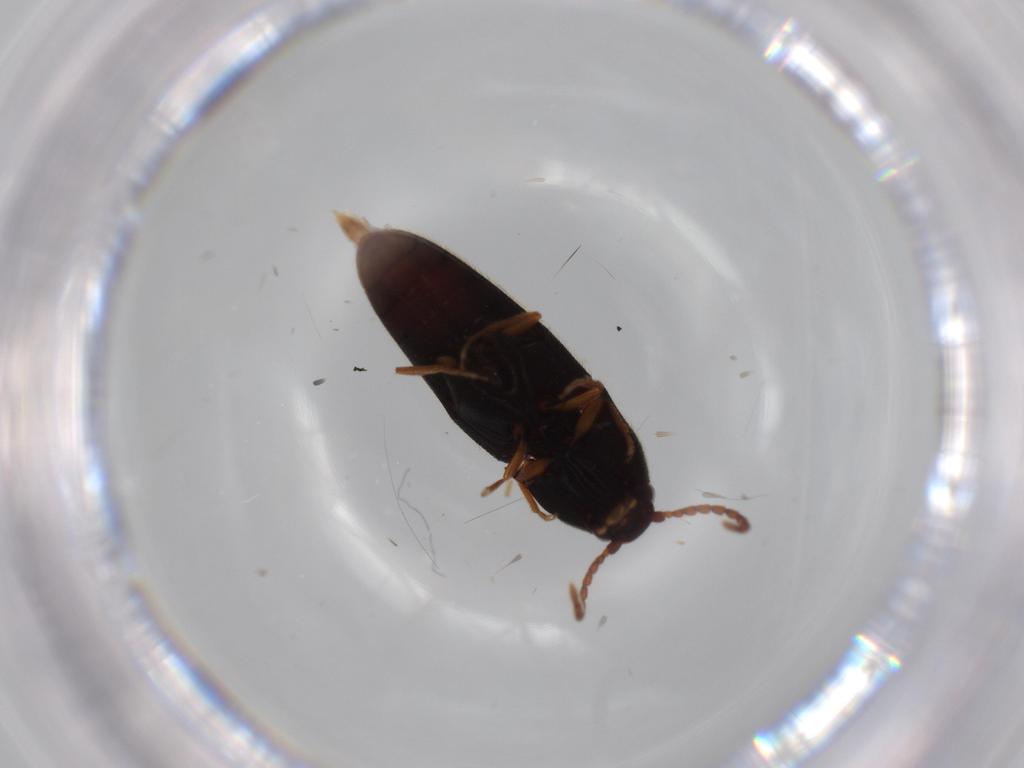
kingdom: Animalia
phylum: Arthropoda
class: Insecta
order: Coleoptera
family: Elateridae
